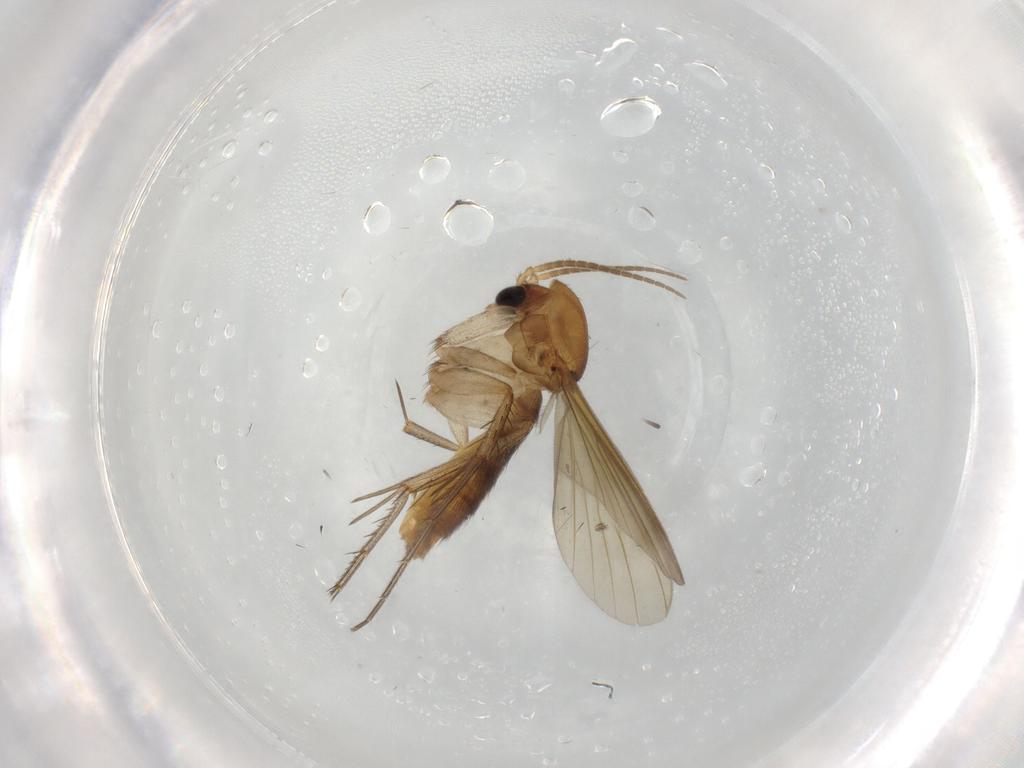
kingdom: Animalia
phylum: Arthropoda
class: Insecta
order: Diptera
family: Mycetophilidae
